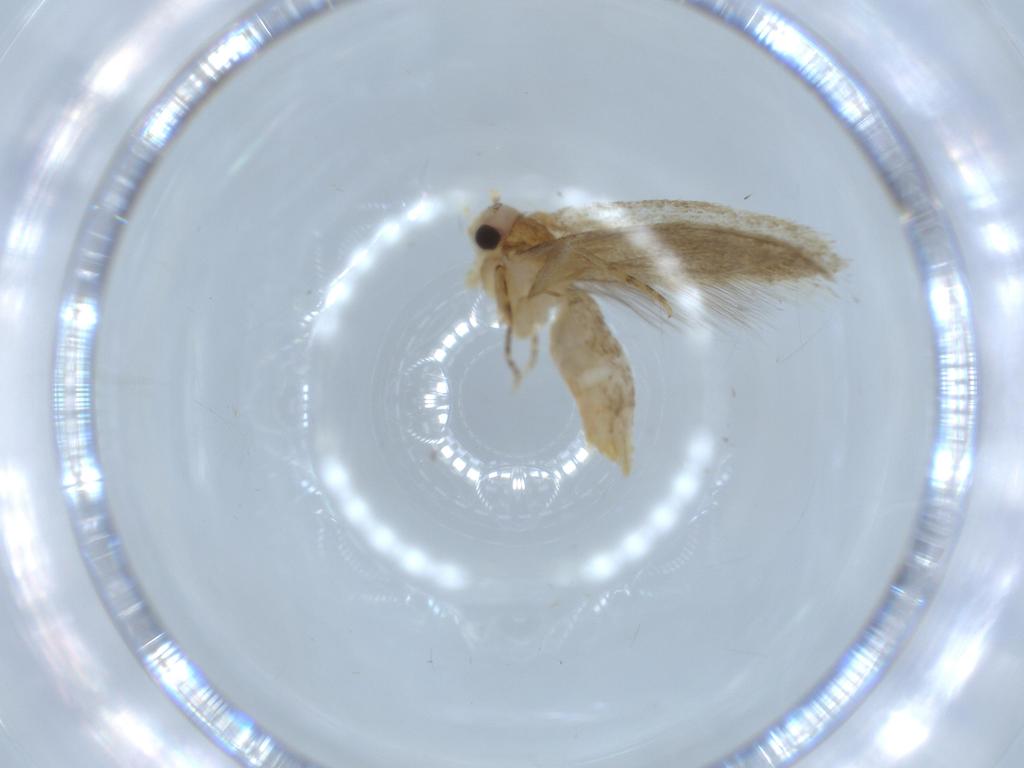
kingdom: Animalia
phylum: Arthropoda
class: Insecta
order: Lepidoptera
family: Tineidae
